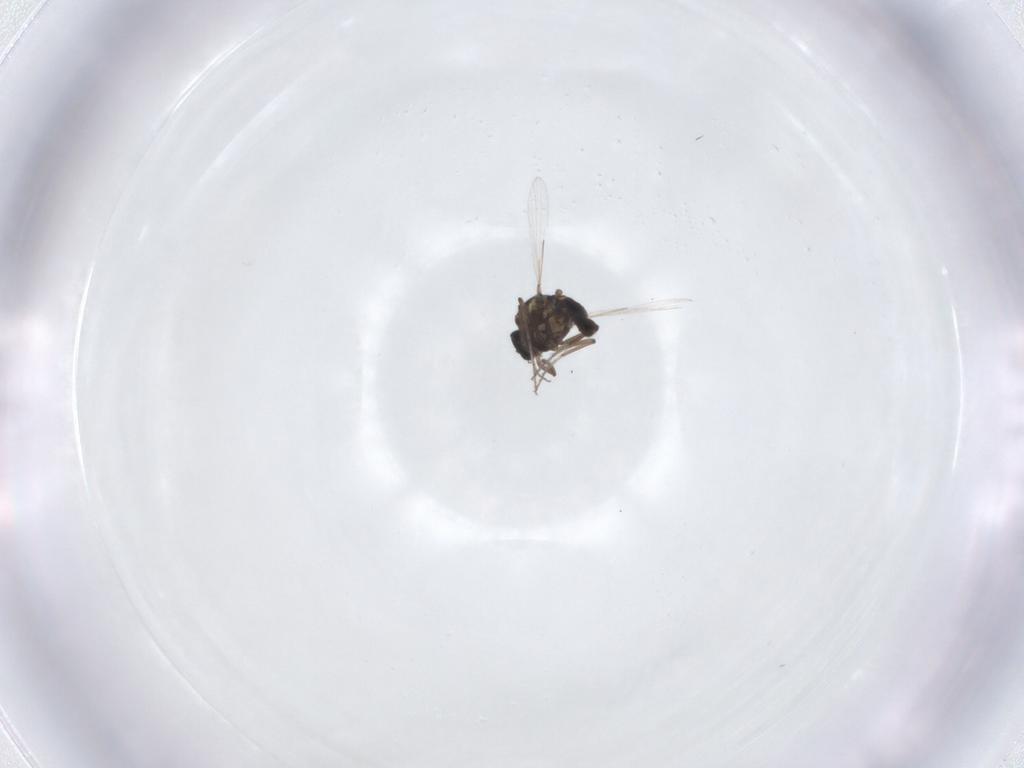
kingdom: Animalia
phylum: Arthropoda
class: Insecta
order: Diptera
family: Ceratopogonidae
